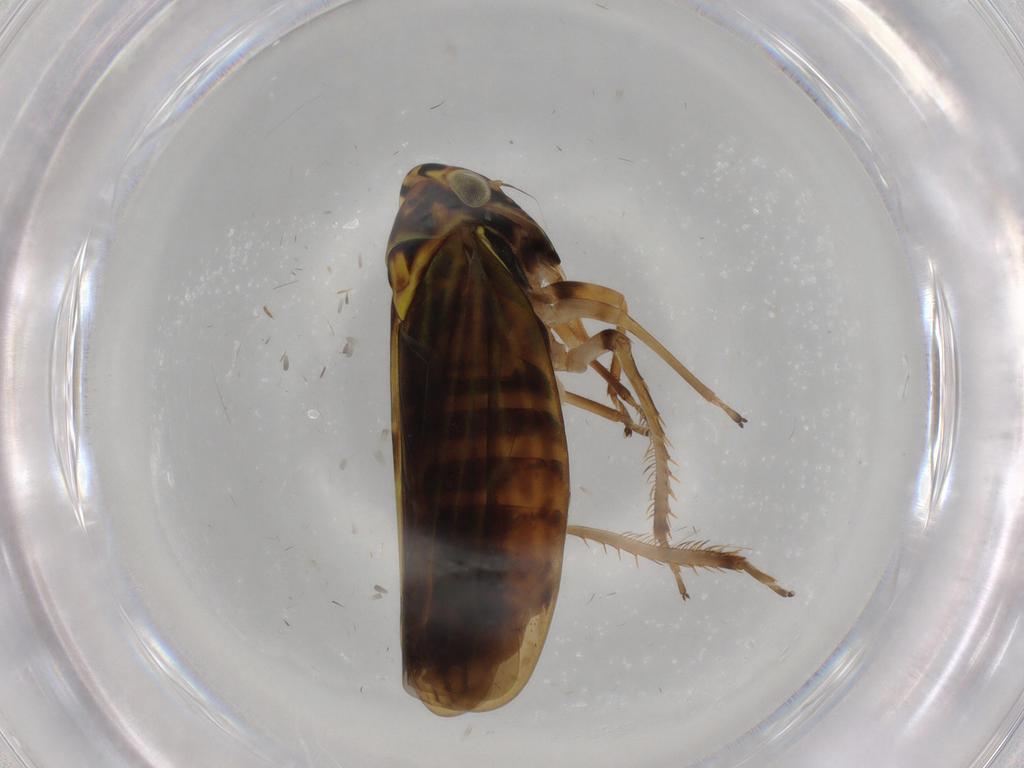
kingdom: Animalia
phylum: Arthropoda
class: Insecta
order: Hemiptera
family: Cicadellidae
